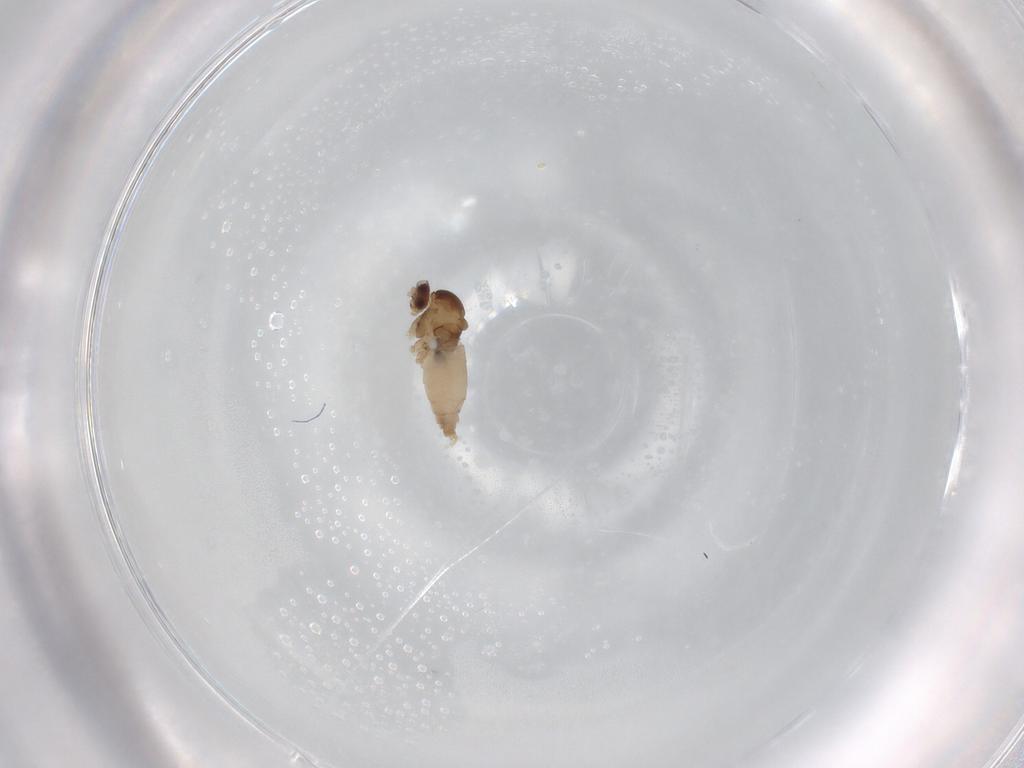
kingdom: Animalia
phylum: Arthropoda
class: Insecta
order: Diptera
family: Cecidomyiidae
